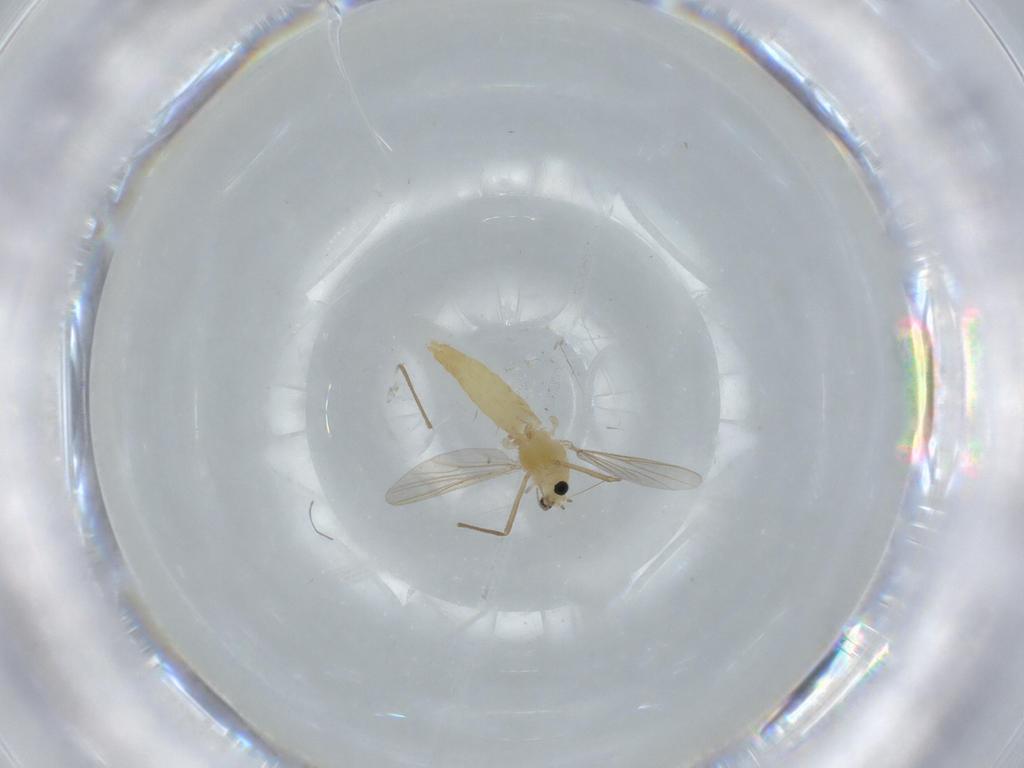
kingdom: Animalia
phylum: Arthropoda
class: Insecta
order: Diptera
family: Chironomidae
